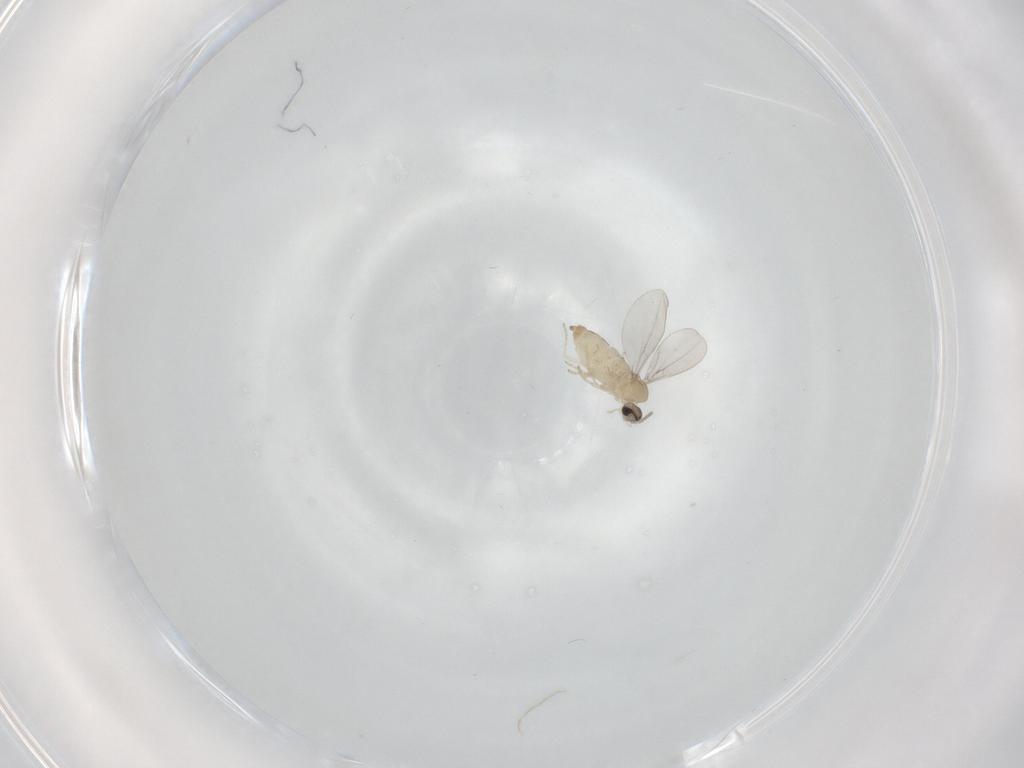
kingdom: Animalia
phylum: Arthropoda
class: Insecta
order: Diptera
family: Cecidomyiidae
